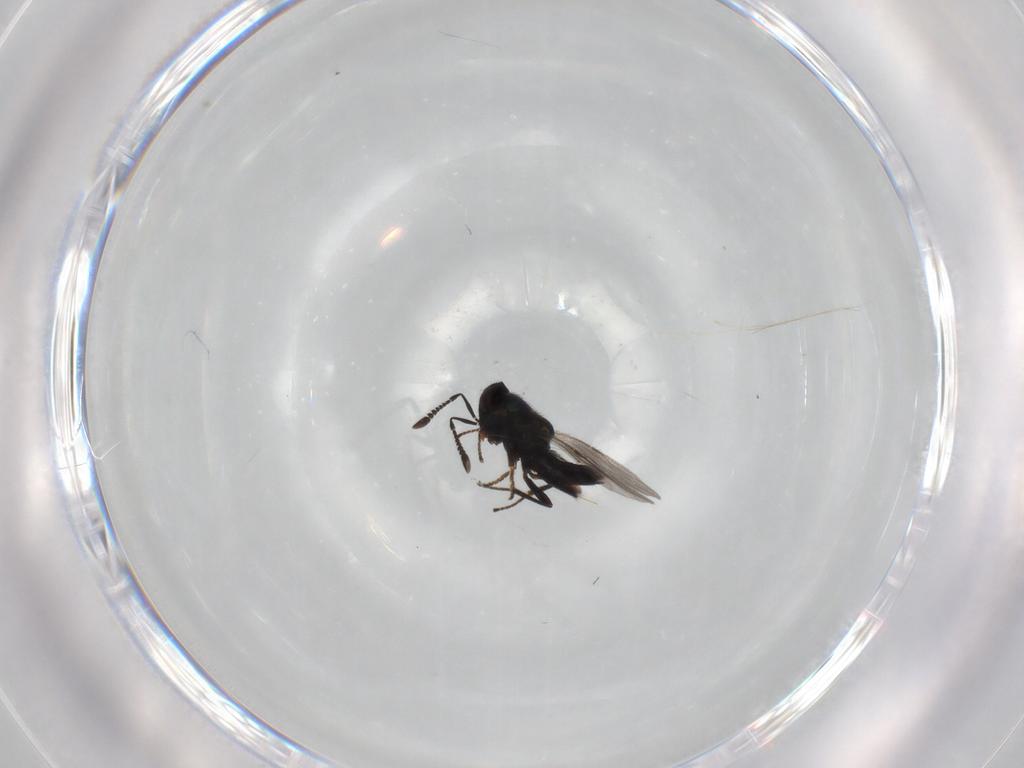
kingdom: Animalia
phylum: Arthropoda
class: Insecta
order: Hymenoptera
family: Encyrtidae
